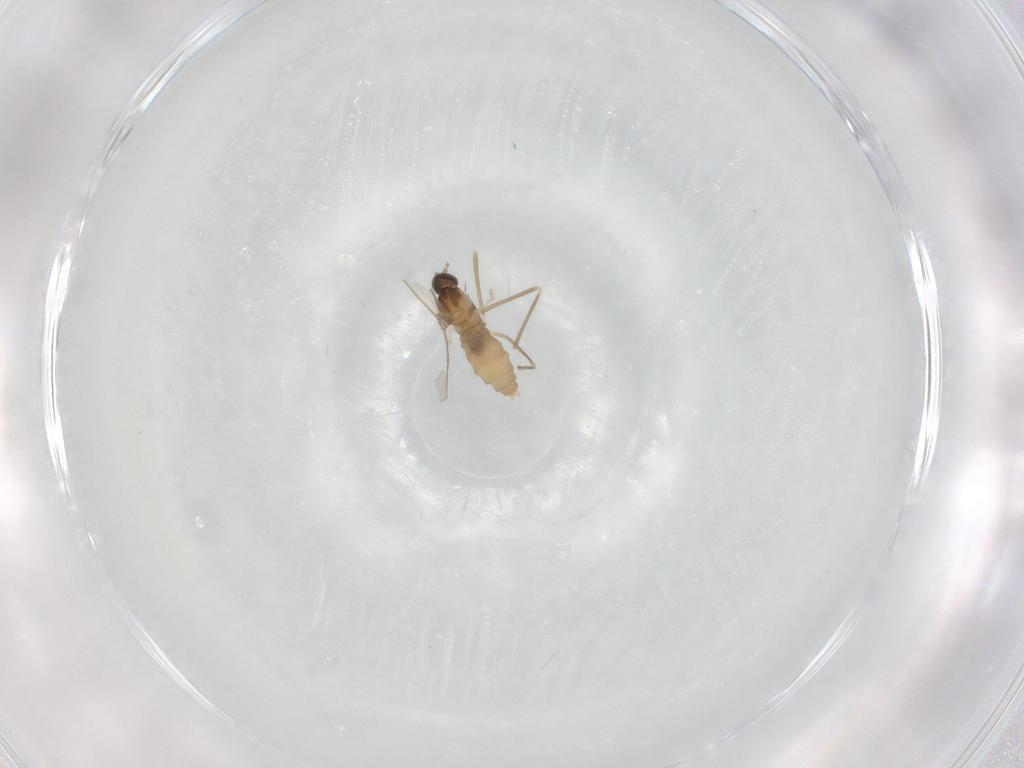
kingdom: Animalia
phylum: Arthropoda
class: Insecta
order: Diptera
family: Cecidomyiidae
